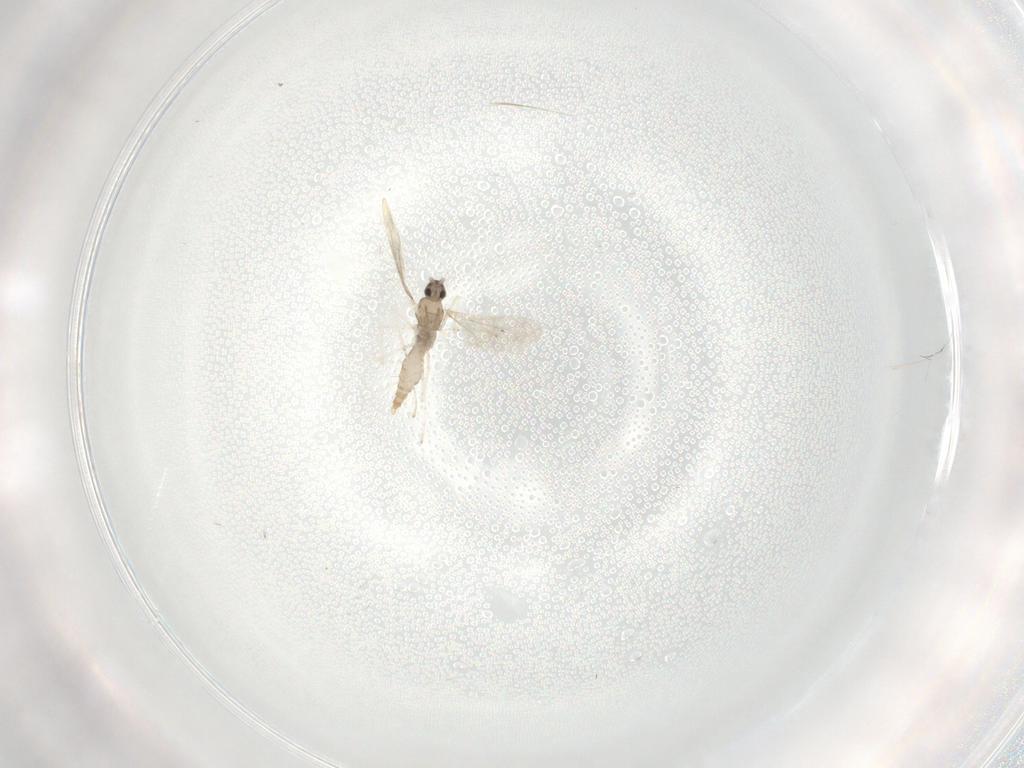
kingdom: Animalia
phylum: Arthropoda
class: Insecta
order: Diptera
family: Cecidomyiidae
